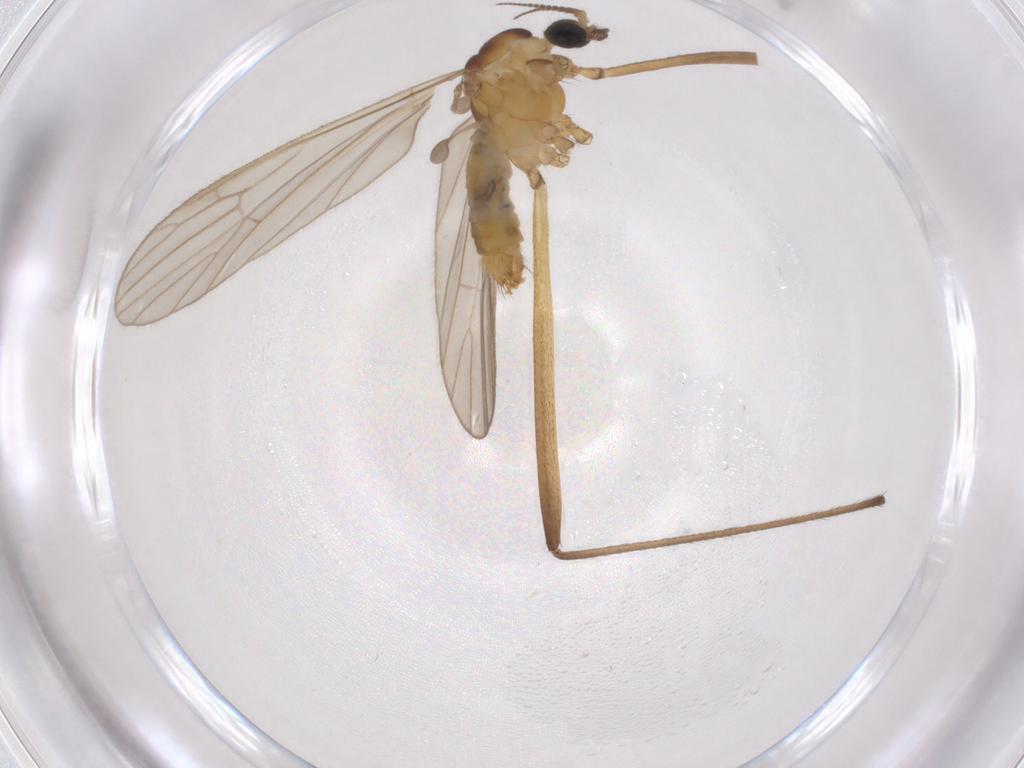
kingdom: Animalia
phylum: Arthropoda
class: Insecta
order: Diptera
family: Limoniidae
